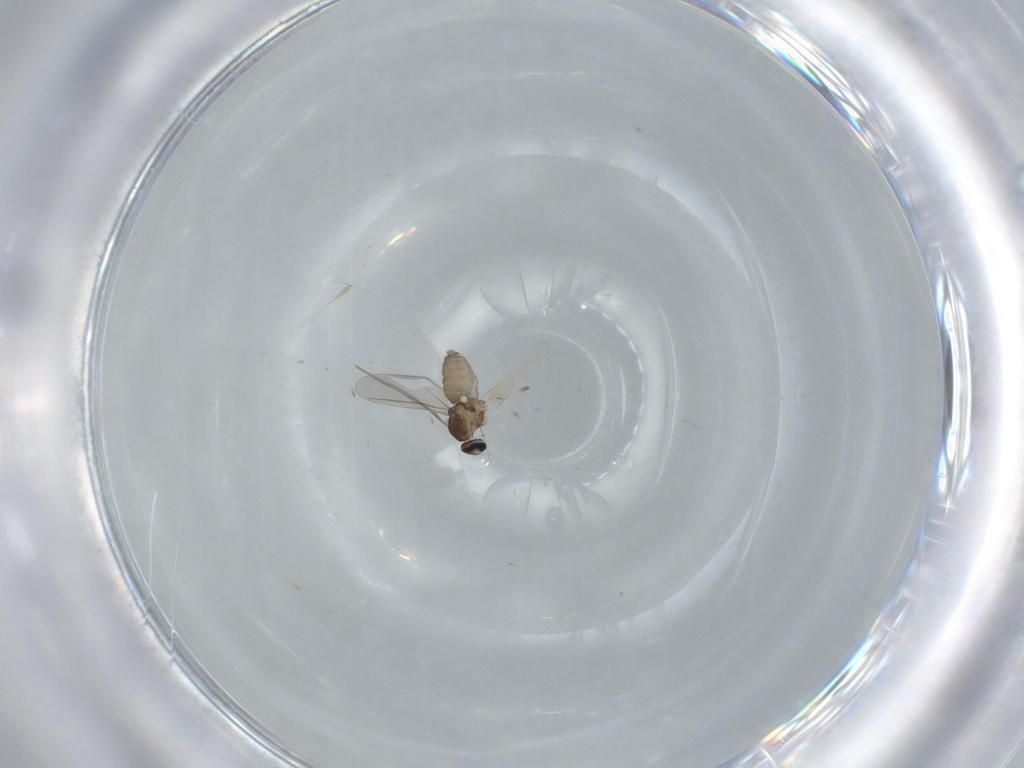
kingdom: Animalia
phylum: Arthropoda
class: Insecta
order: Diptera
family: Cecidomyiidae
